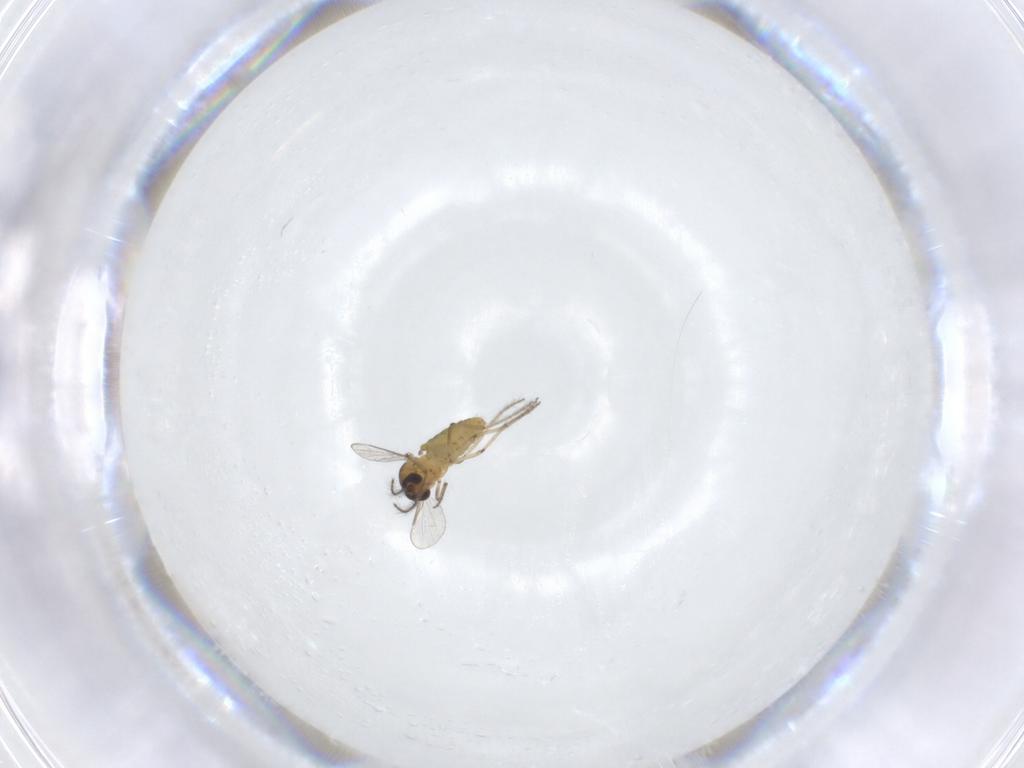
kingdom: Animalia
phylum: Arthropoda
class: Insecta
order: Diptera
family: Ceratopogonidae
